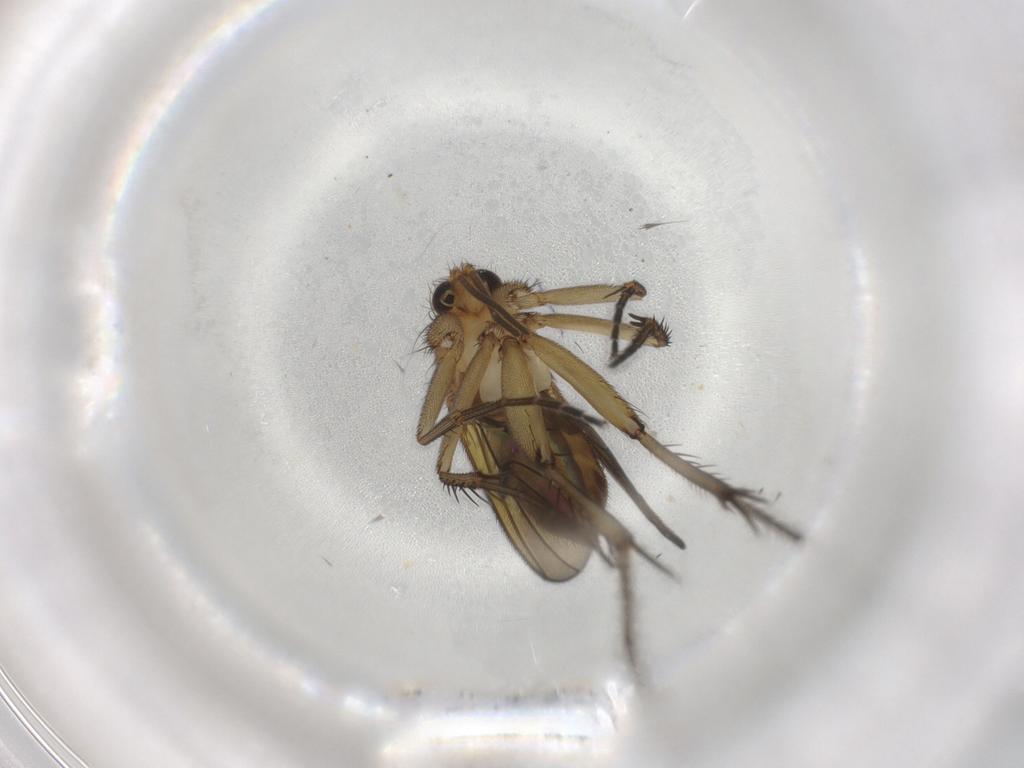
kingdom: Animalia
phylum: Arthropoda
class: Insecta
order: Diptera
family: Mycetophilidae
